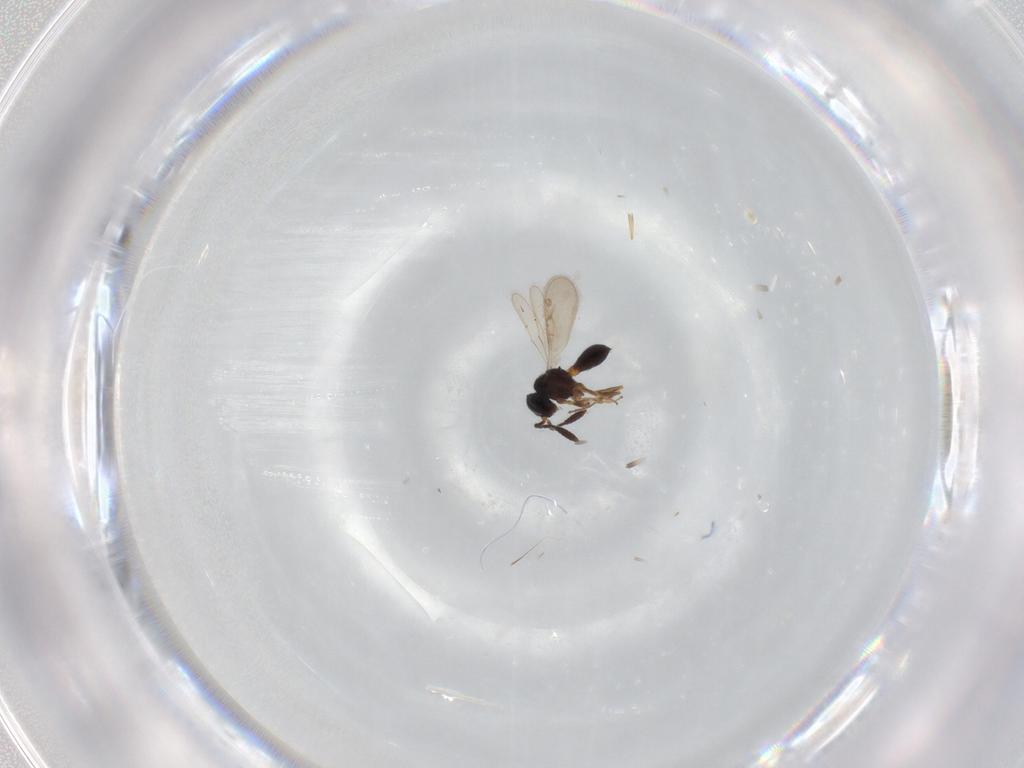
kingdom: Animalia
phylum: Arthropoda
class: Insecta
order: Hymenoptera
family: Scelionidae
